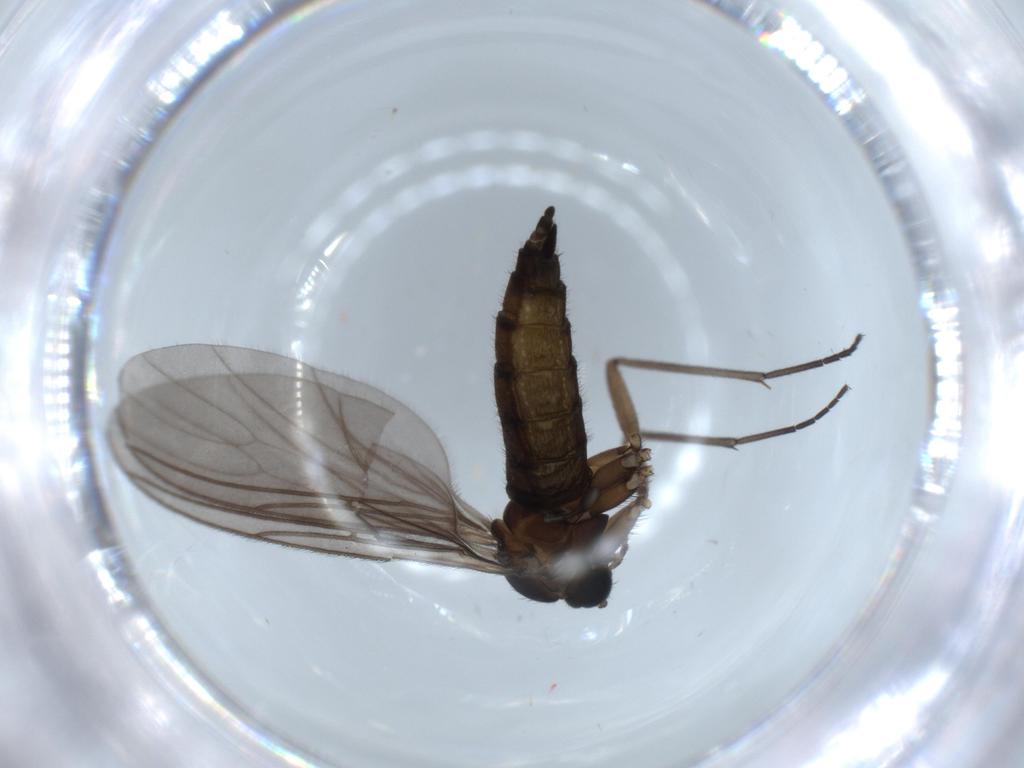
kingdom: Animalia
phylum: Arthropoda
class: Insecta
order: Diptera
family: Sciaridae
